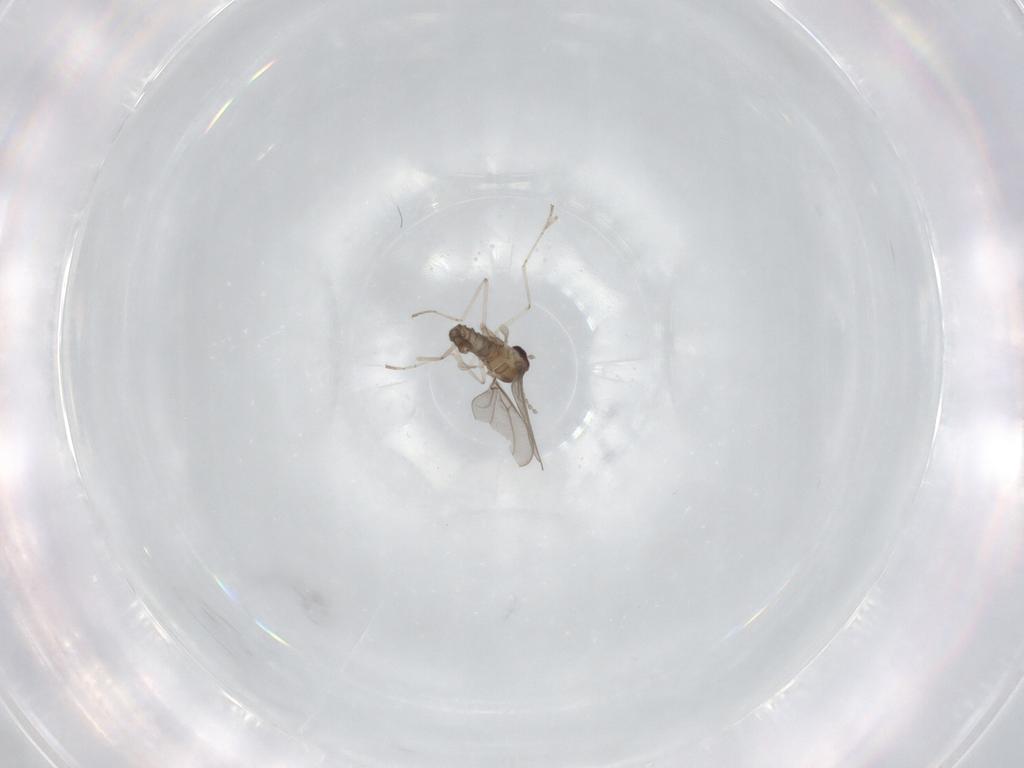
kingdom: Animalia
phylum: Arthropoda
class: Insecta
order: Diptera
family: Cecidomyiidae
